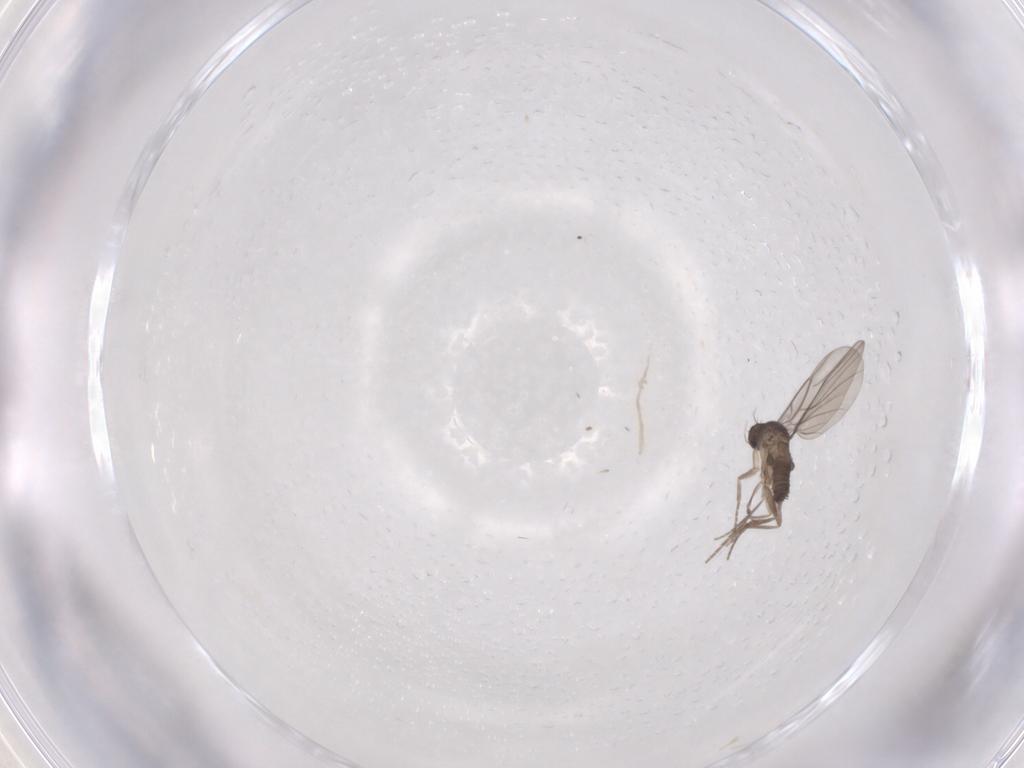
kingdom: Animalia
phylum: Arthropoda
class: Insecta
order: Diptera
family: Phoridae
